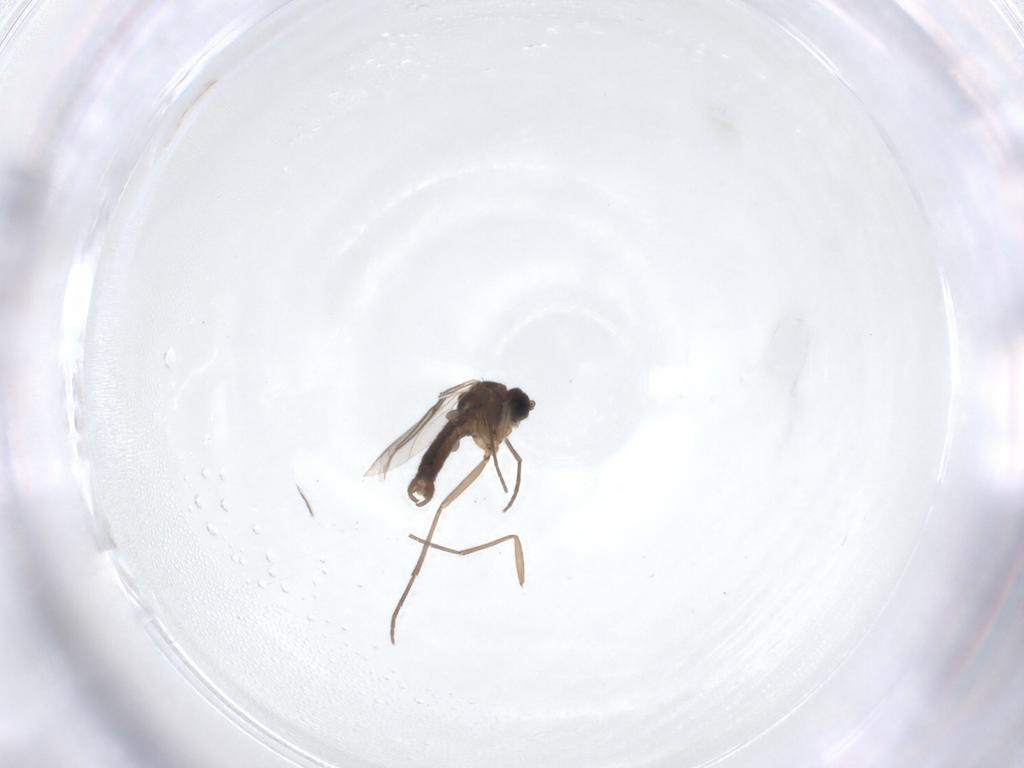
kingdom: Animalia
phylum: Arthropoda
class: Insecta
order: Diptera
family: Sciaridae
